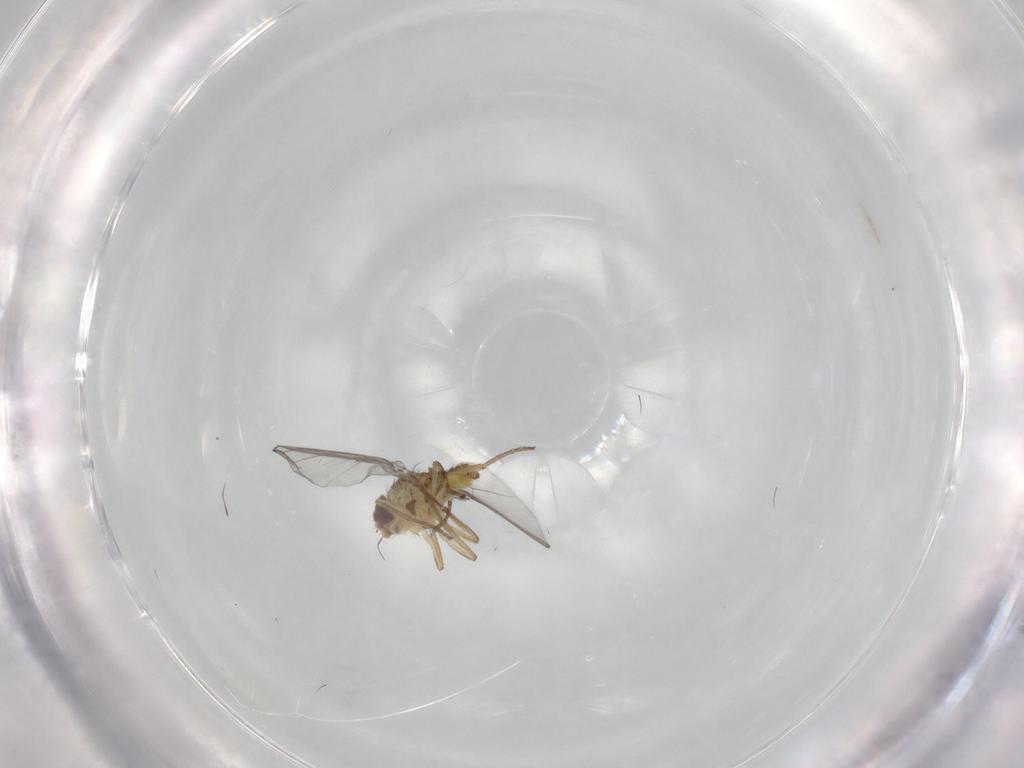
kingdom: Animalia
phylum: Arthropoda
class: Insecta
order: Diptera
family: Agromyzidae
